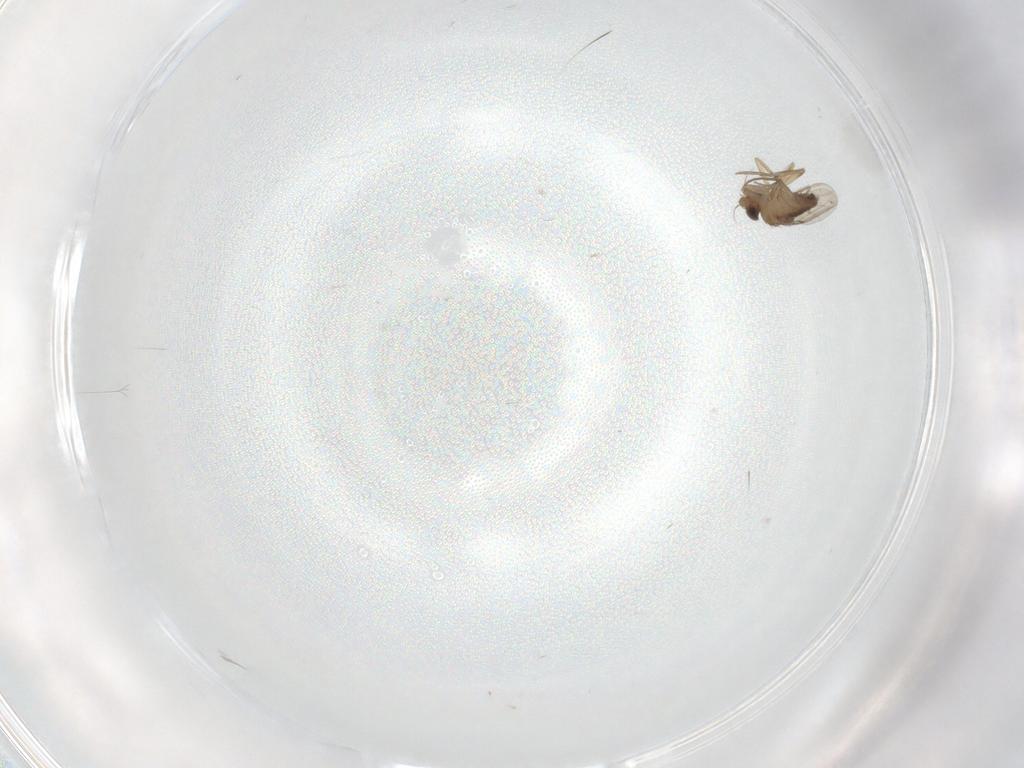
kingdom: Animalia
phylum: Arthropoda
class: Insecta
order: Diptera
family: Phoridae
